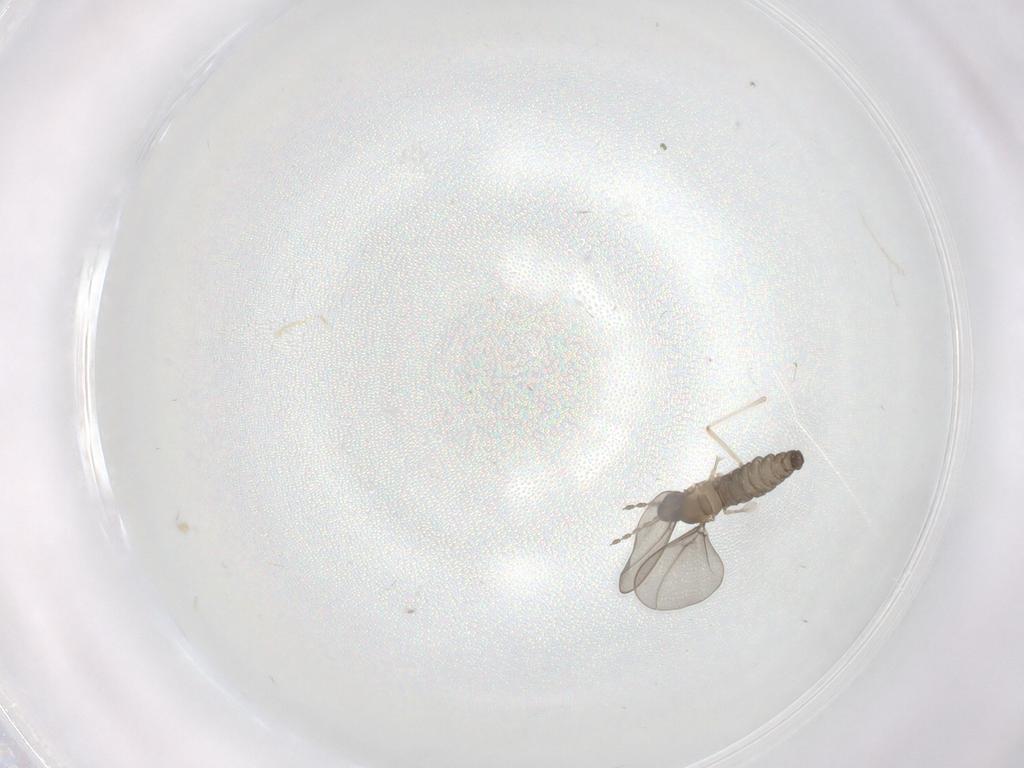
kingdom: Animalia
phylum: Arthropoda
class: Insecta
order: Diptera
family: Cecidomyiidae
